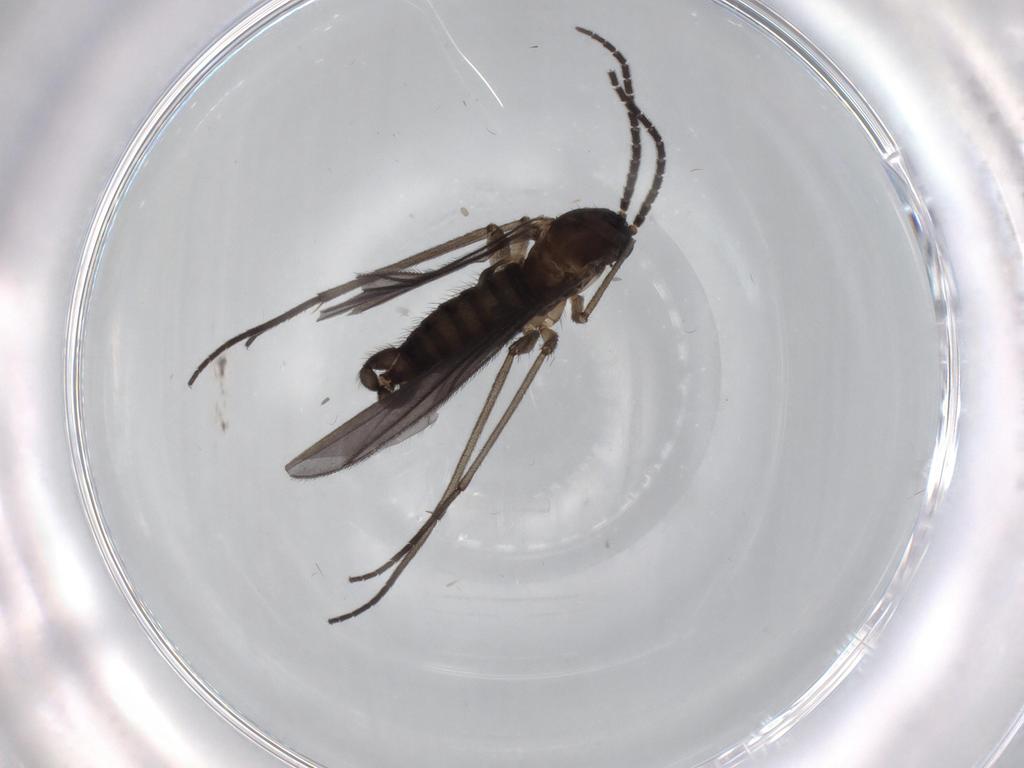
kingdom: Animalia
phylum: Arthropoda
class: Insecta
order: Diptera
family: Sciaridae
